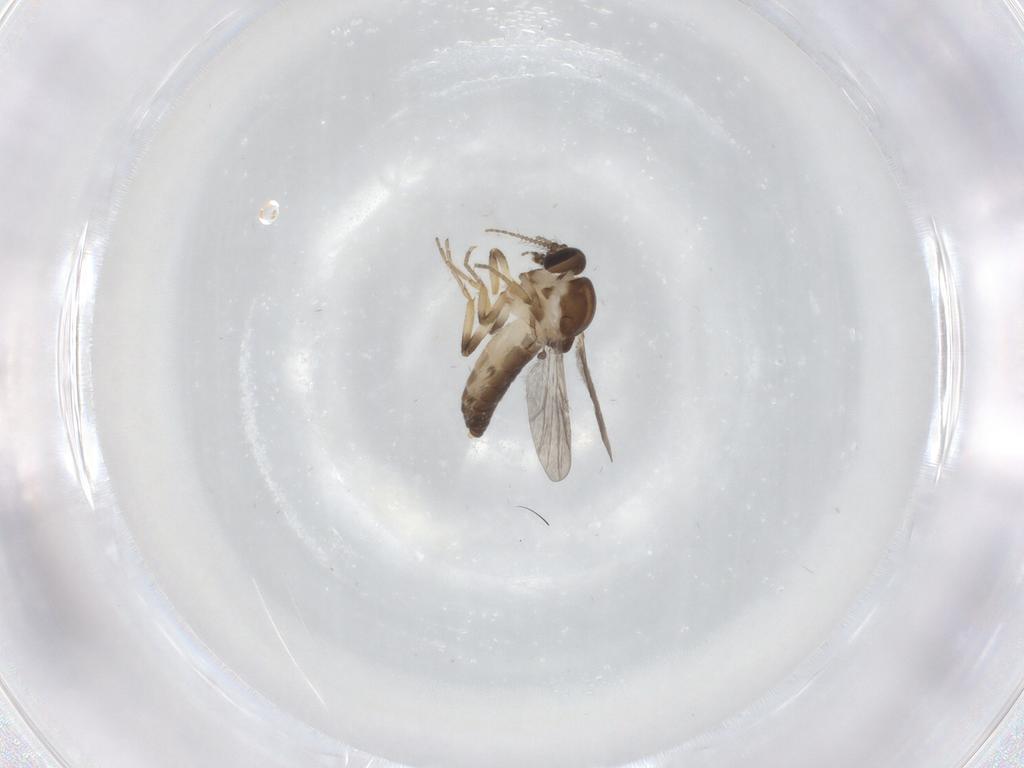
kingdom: Animalia
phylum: Arthropoda
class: Insecta
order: Diptera
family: Ceratopogonidae
